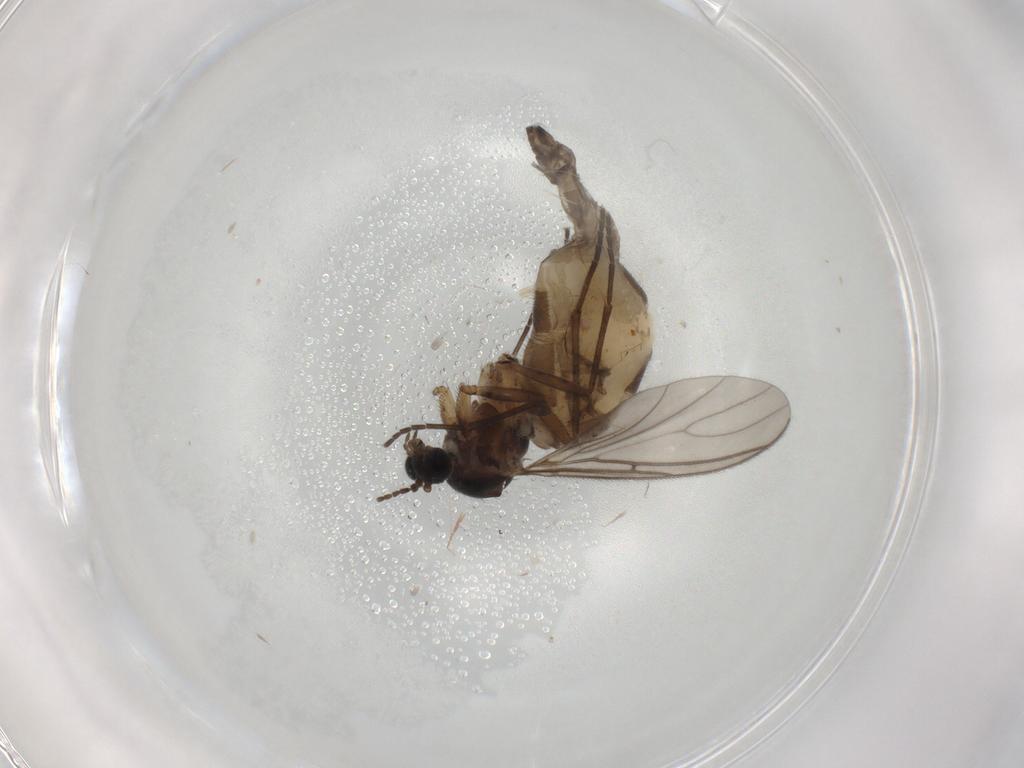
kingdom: Animalia
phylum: Arthropoda
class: Insecta
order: Diptera
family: Sciaridae
